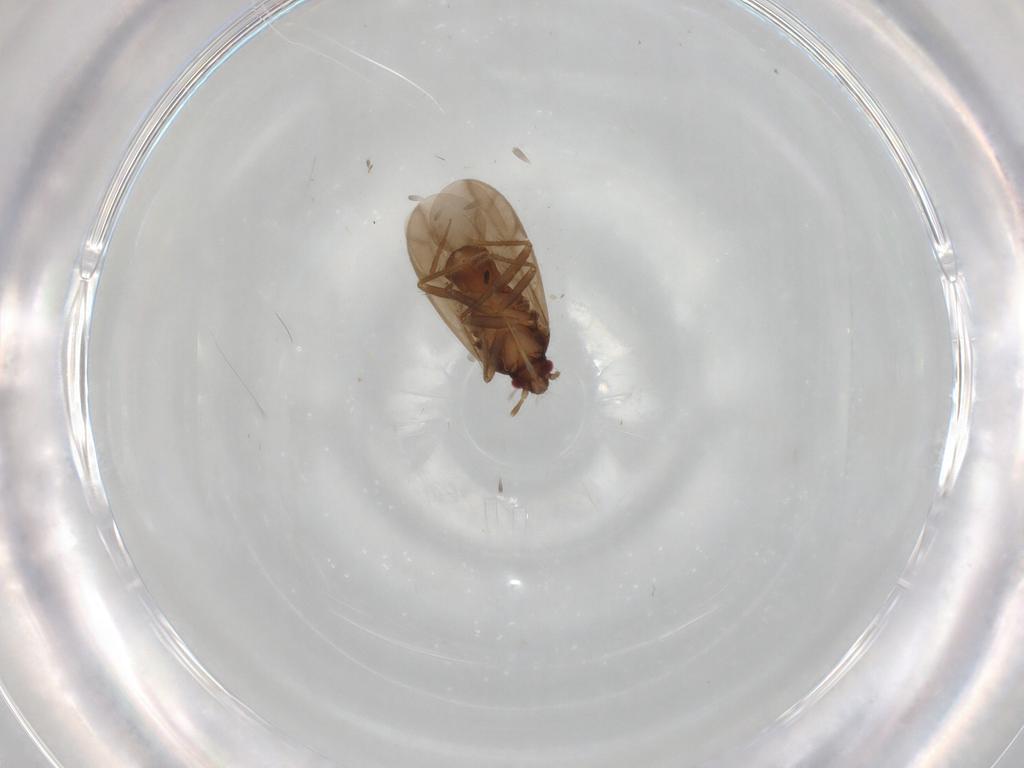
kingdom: Animalia
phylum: Arthropoda
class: Insecta
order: Hemiptera
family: Ceratocombidae
